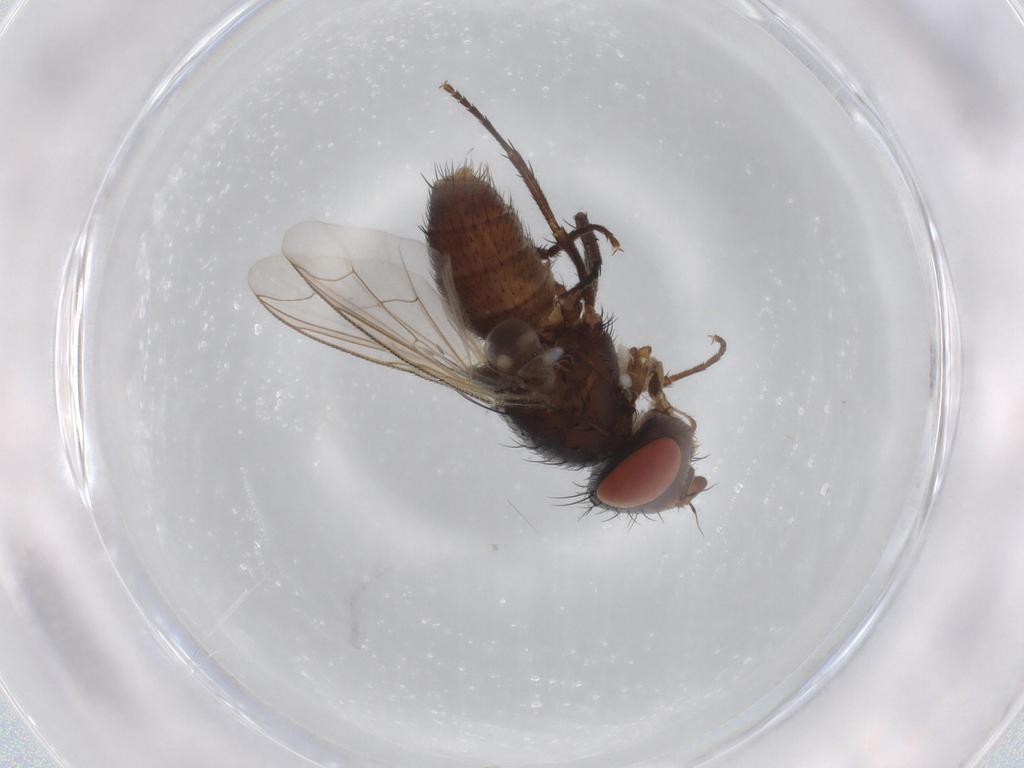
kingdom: Animalia
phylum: Arthropoda
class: Insecta
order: Diptera
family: Sarcophagidae
